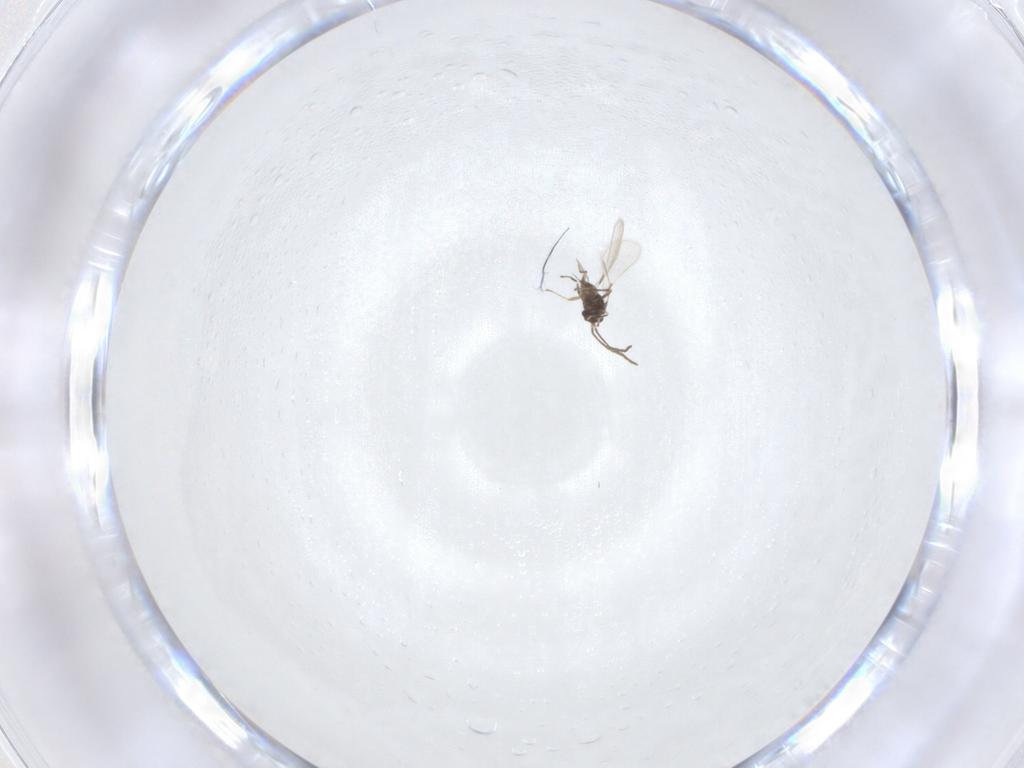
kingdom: Animalia
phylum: Arthropoda
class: Insecta
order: Hymenoptera
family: Mymaridae
